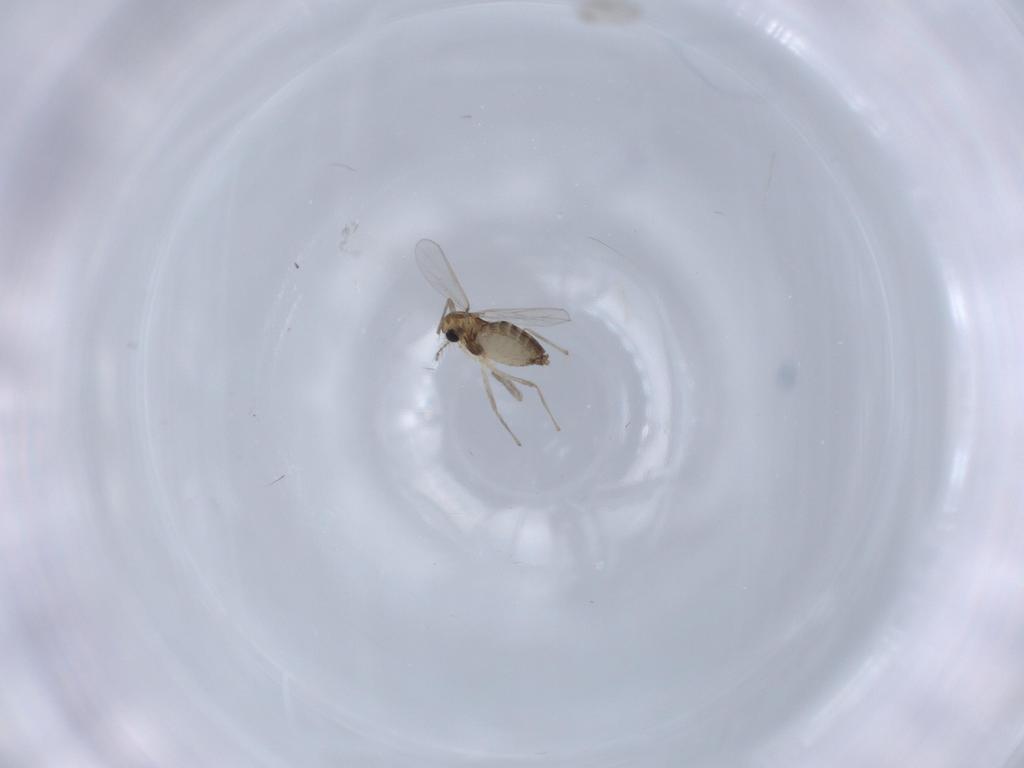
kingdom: Animalia
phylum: Arthropoda
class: Insecta
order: Diptera
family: Chironomidae
